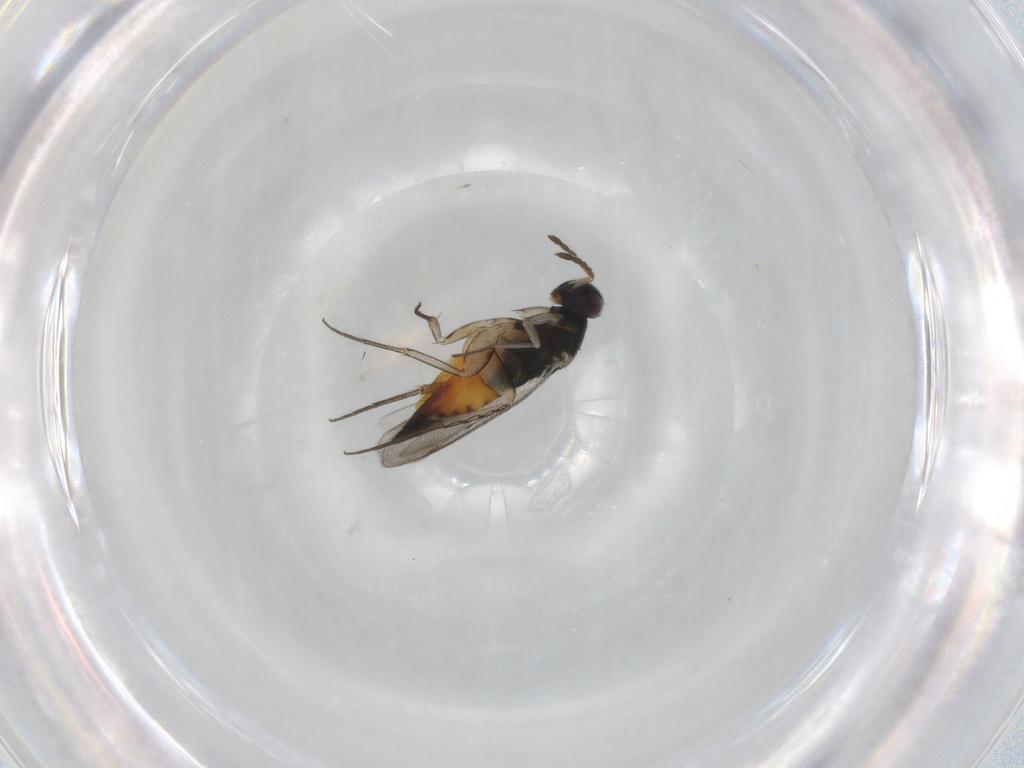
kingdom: Animalia
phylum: Arthropoda
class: Insecta
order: Hymenoptera
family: Eulophidae
